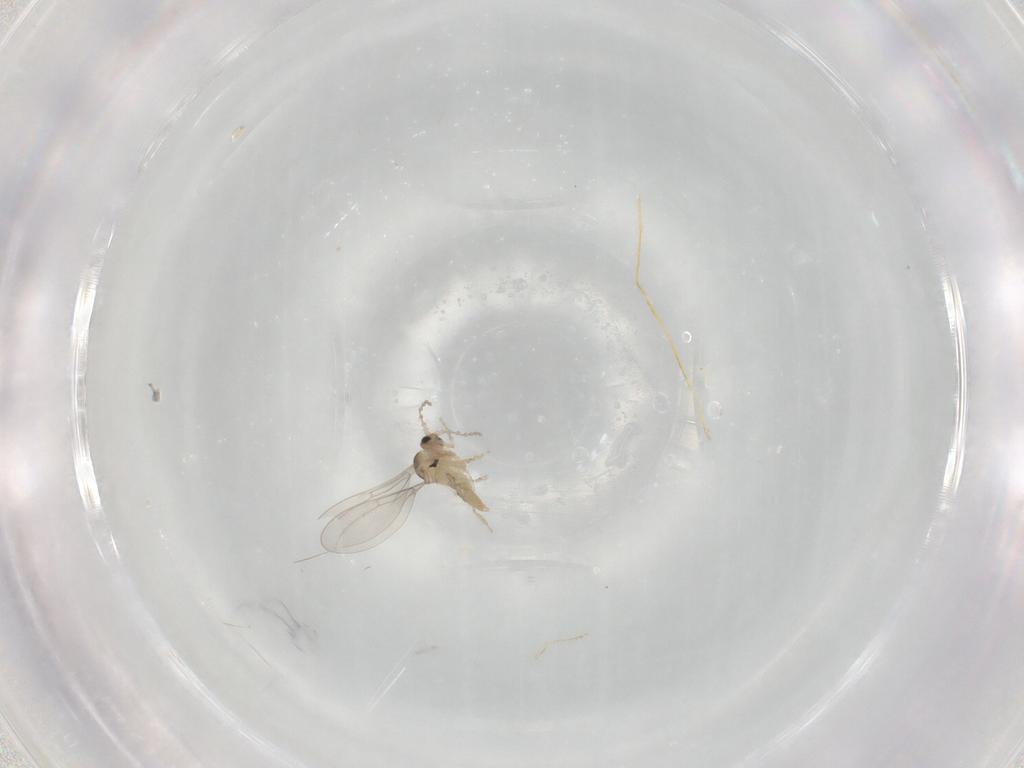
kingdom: Animalia
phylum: Arthropoda
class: Insecta
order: Diptera
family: Cecidomyiidae
